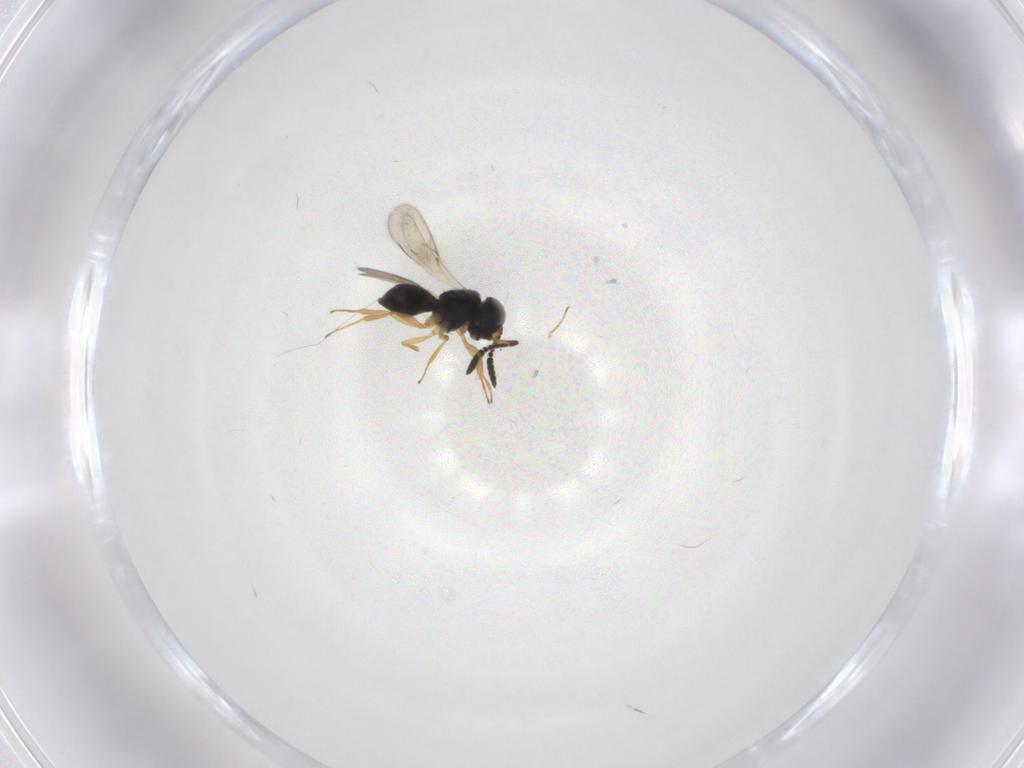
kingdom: Animalia
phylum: Arthropoda
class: Insecta
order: Hymenoptera
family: Scelionidae
